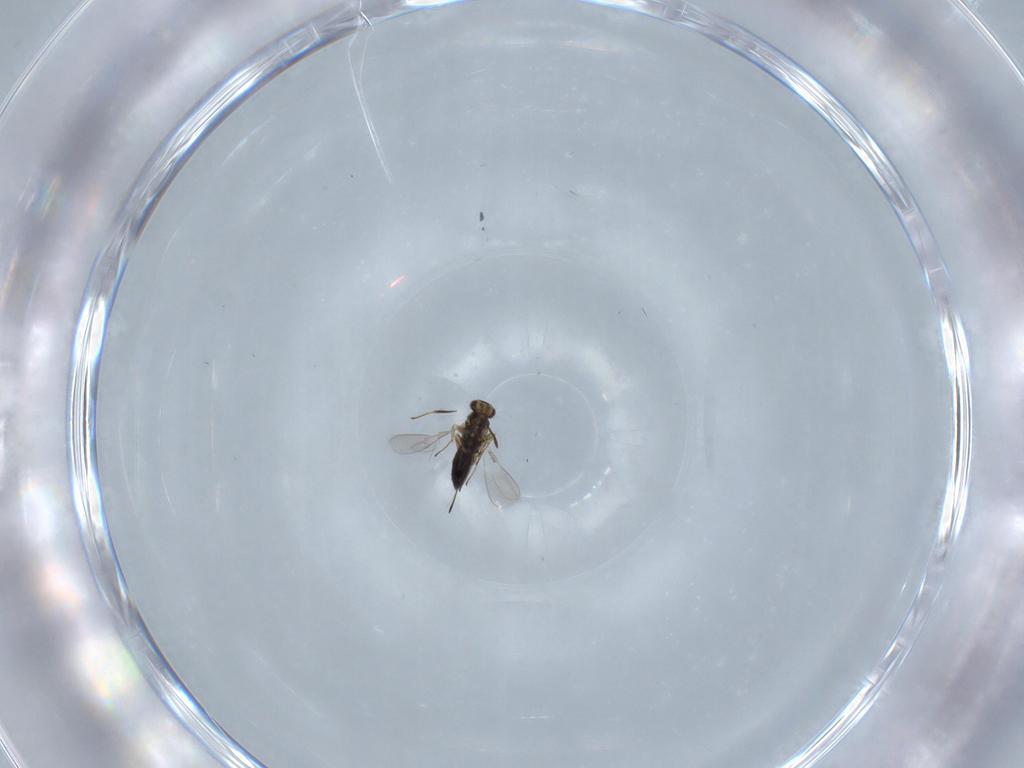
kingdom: Animalia
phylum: Arthropoda
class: Insecta
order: Hymenoptera
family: Scelionidae
